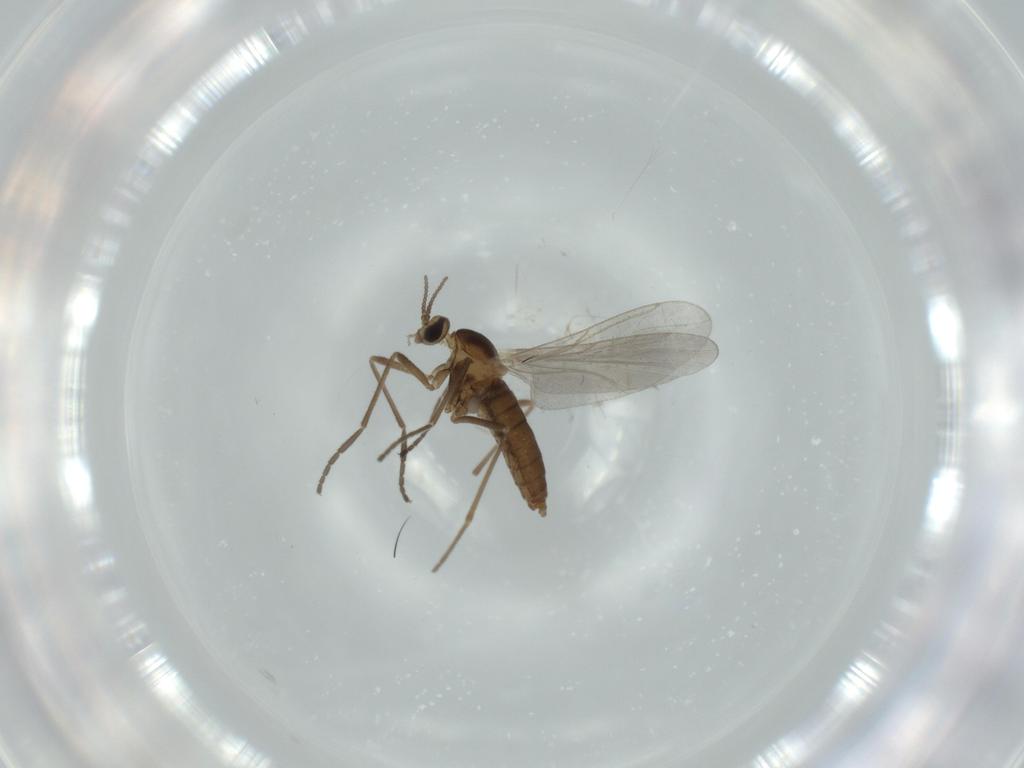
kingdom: Animalia
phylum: Arthropoda
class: Insecta
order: Diptera
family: Cecidomyiidae
